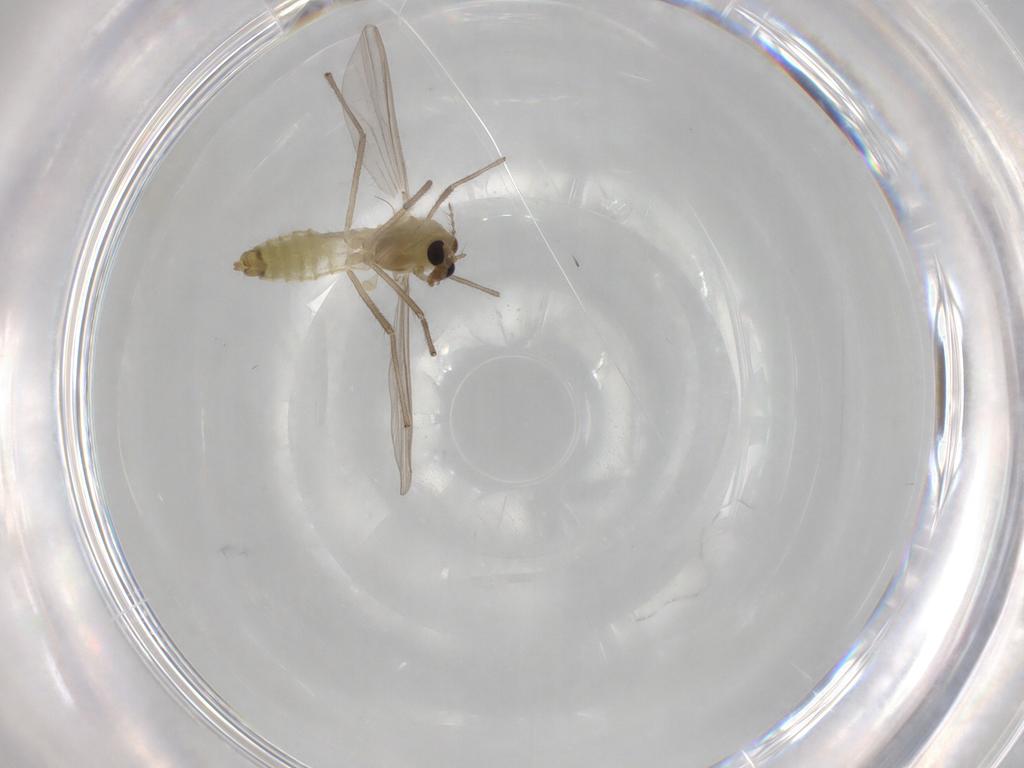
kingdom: Animalia
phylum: Arthropoda
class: Insecta
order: Diptera
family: Chironomidae
